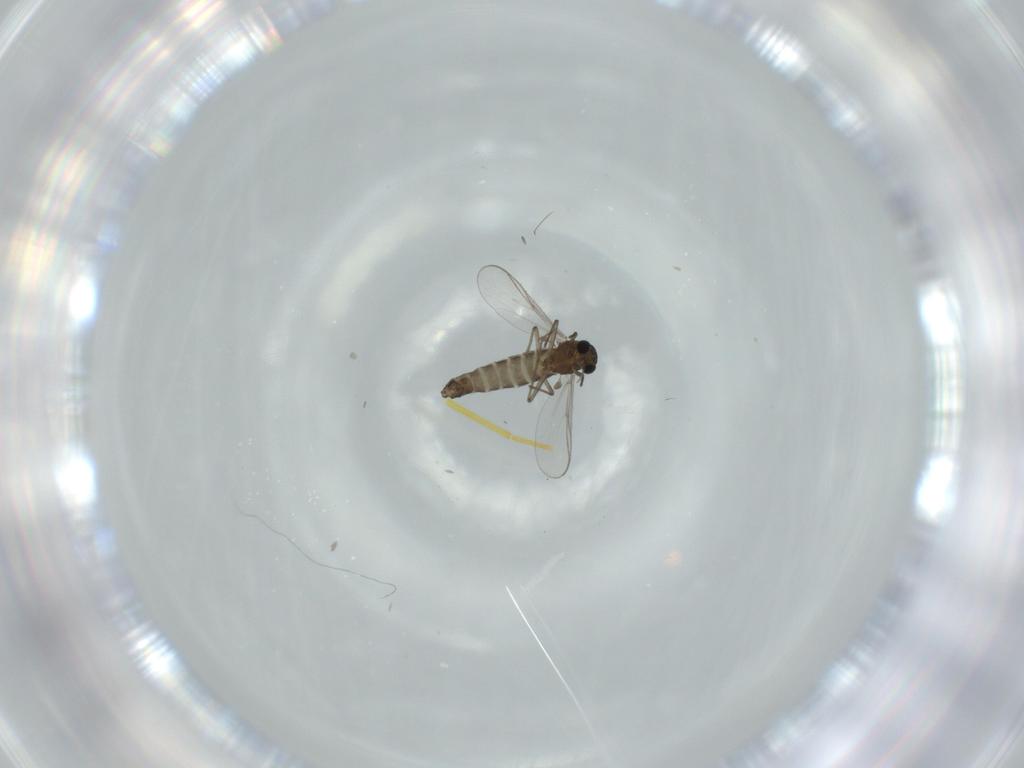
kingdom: Animalia
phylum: Arthropoda
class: Insecta
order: Diptera
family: Chironomidae
